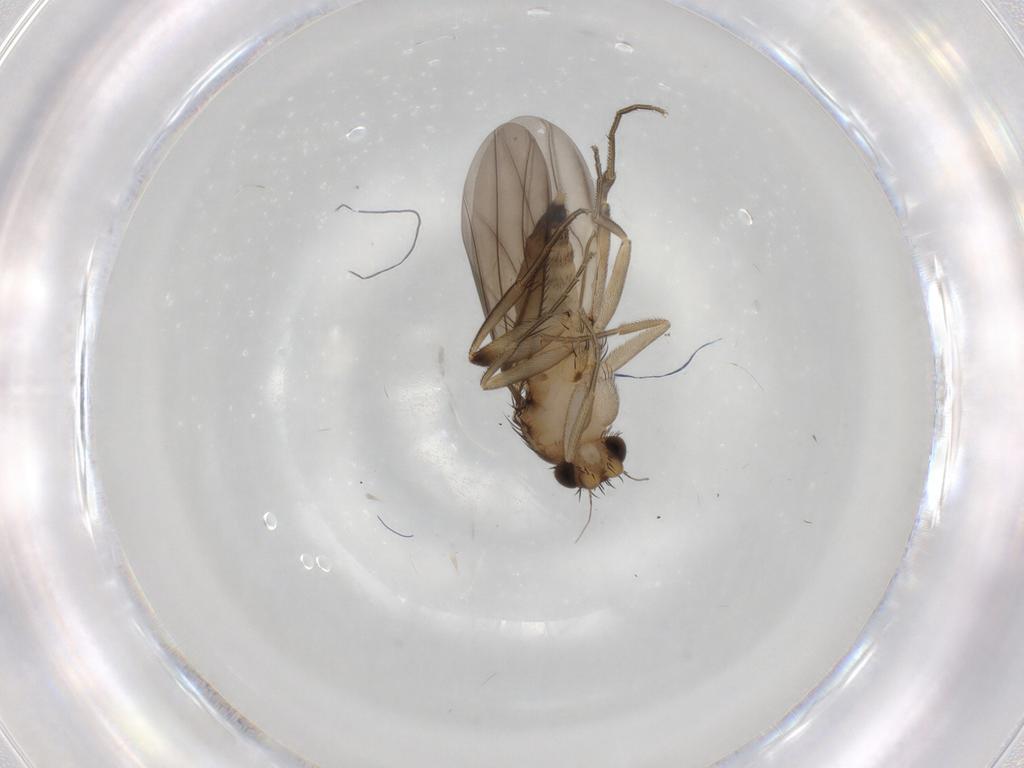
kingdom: Animalia
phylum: Arthropoda
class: Insecta
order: Diptera
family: Phoridae
